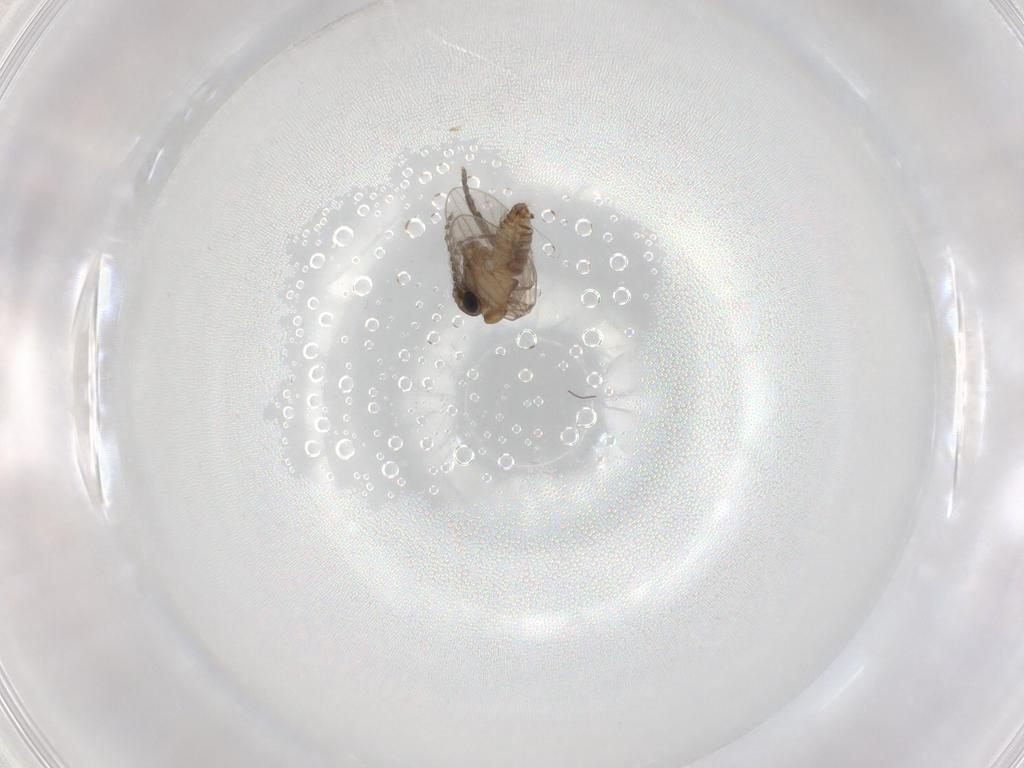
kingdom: Animalia
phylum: Arthropoda
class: Insecta
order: Diptera
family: Psychodidae
